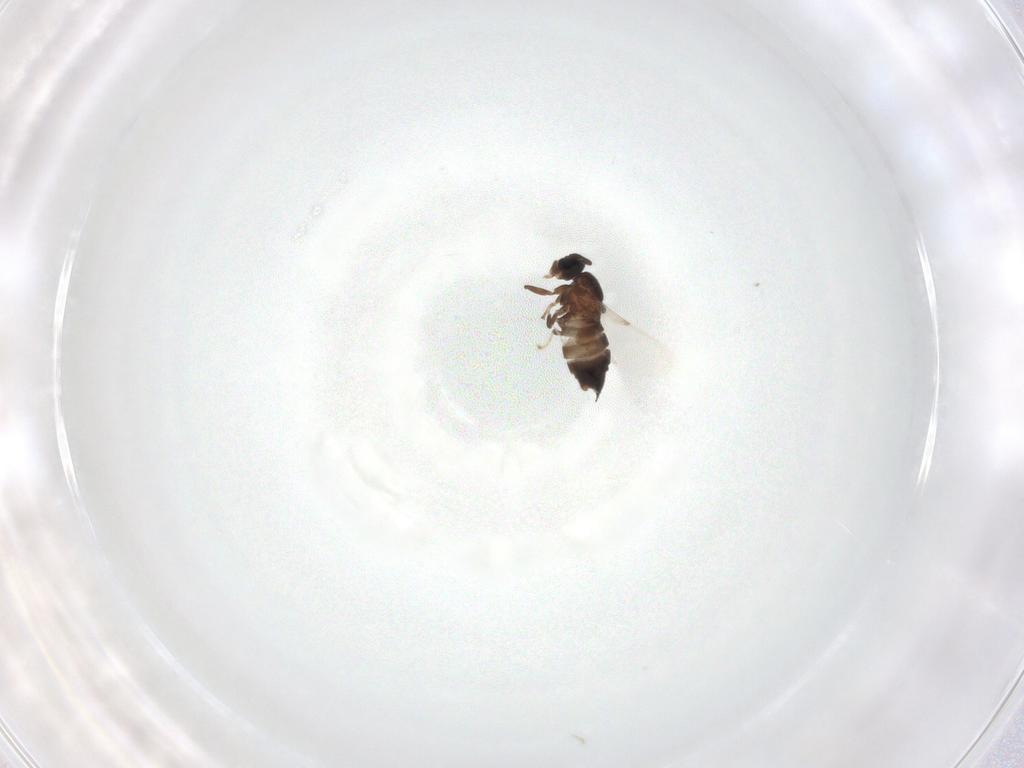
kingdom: Animalia
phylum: Arthropoda
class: Insecta
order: Diptera
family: Scatopsidae
